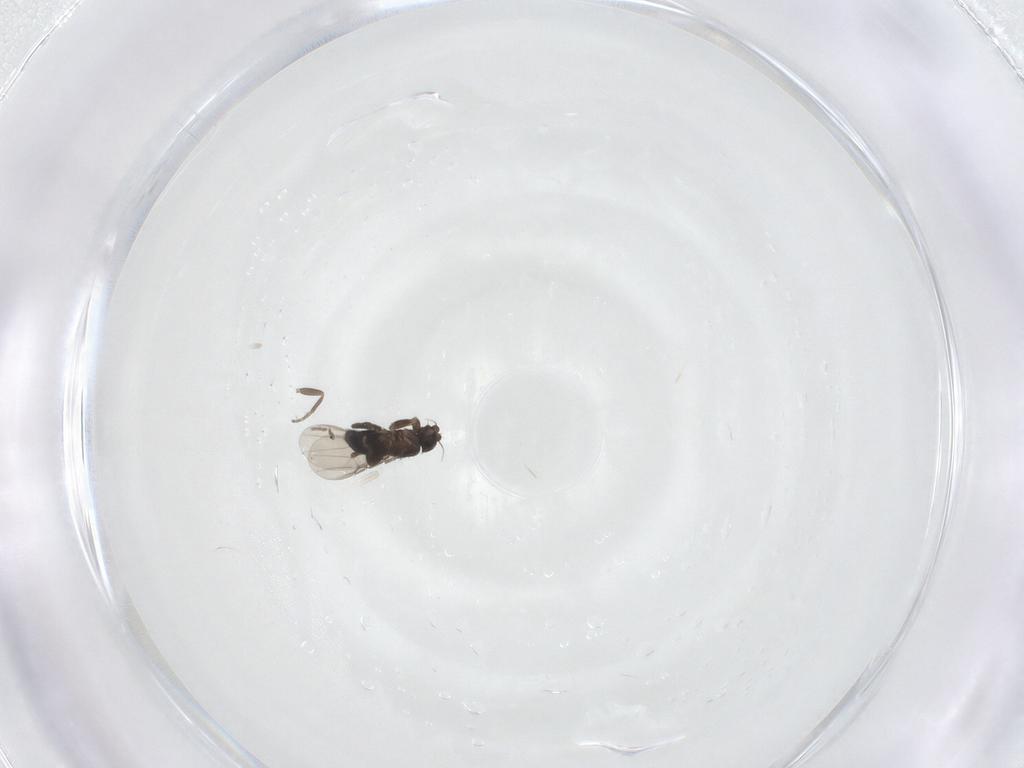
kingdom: Animalia
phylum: Arthropoda
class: Insecta
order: Diptera
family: Phoridae
